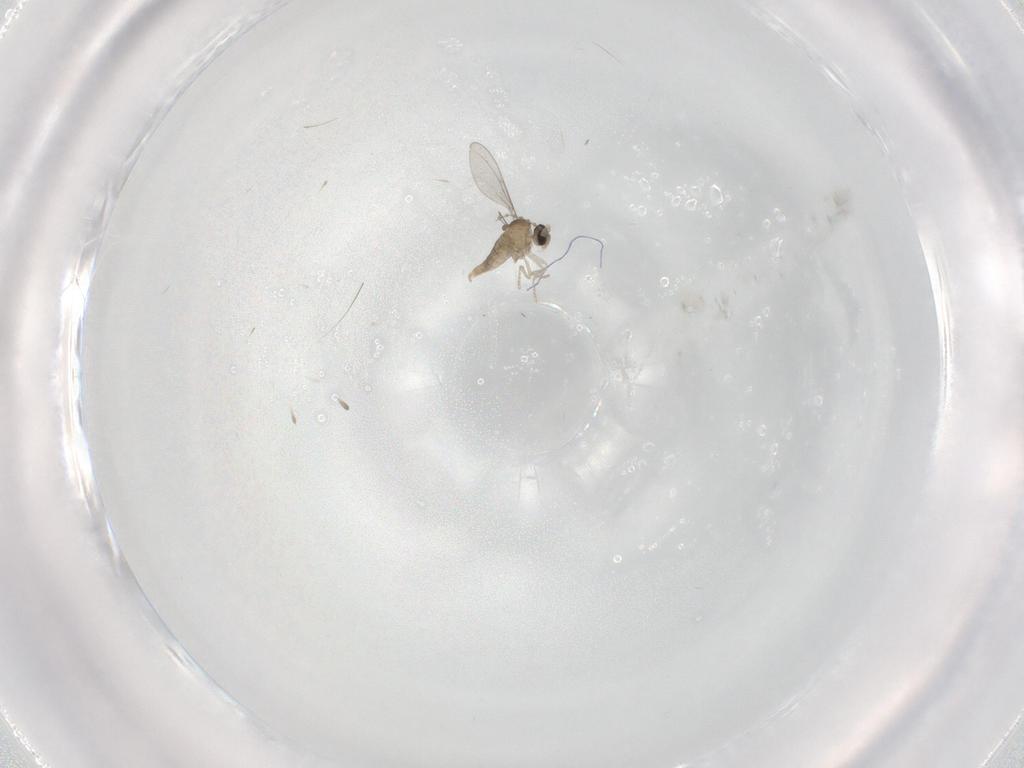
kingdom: Animalia
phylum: Arthropoda
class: Insecta
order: Diptera
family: Cecidomyiidae
